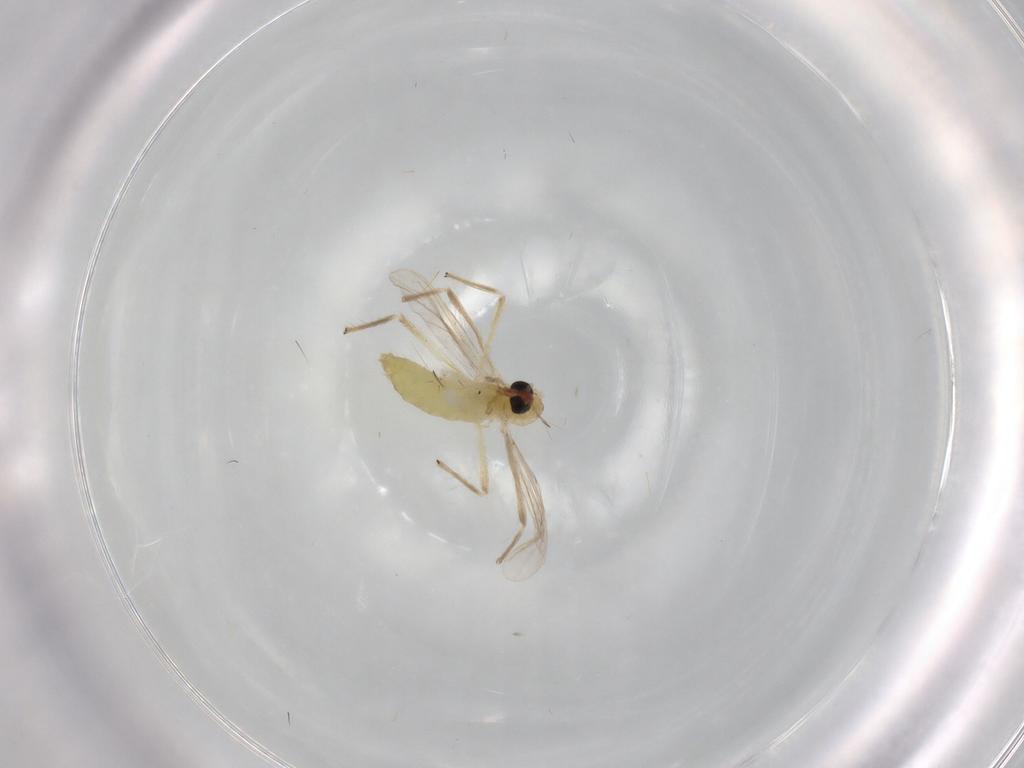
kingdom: Animalia
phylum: Arthropoda
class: Insecta
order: Diptera
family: Chironomidae
